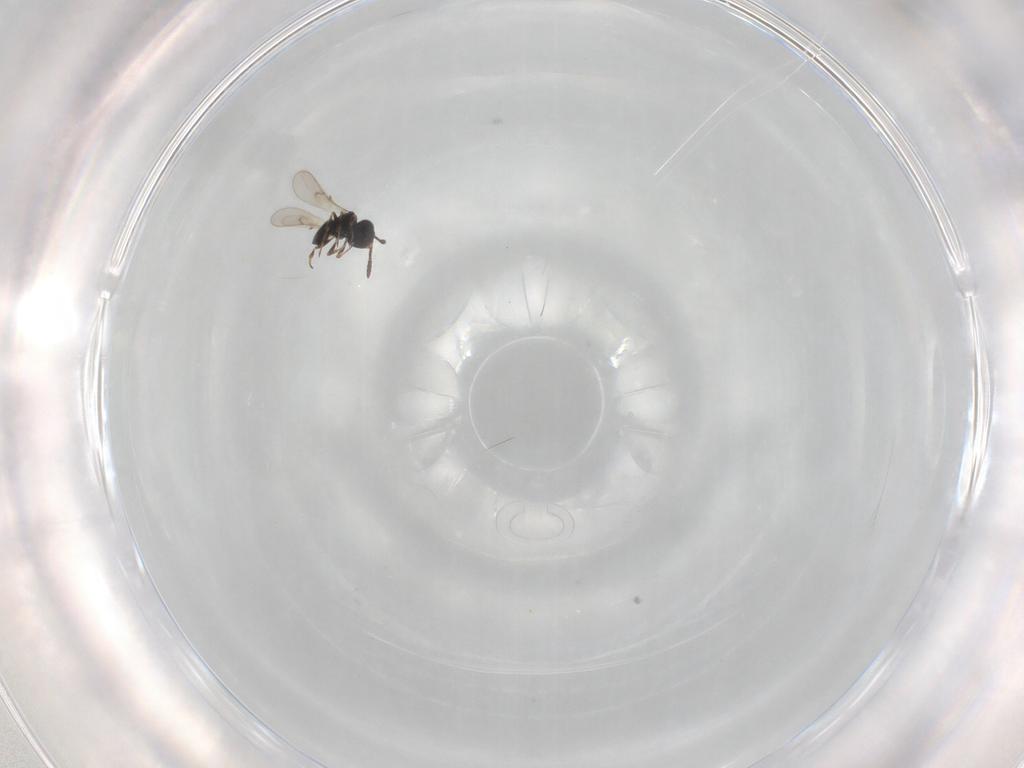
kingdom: Animalia
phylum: Arthropoda
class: Insecta
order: Hymenoptera
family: Scelionidae
